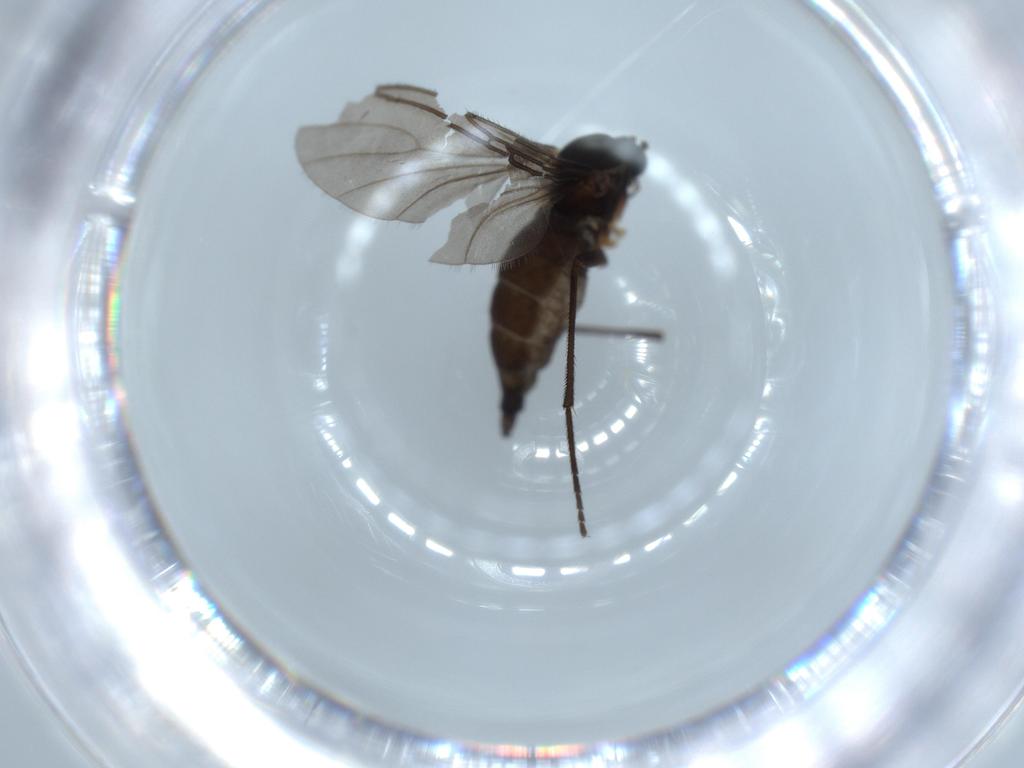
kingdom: Animalia
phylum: Arthropoda
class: Insecta
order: Diptera
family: Sciaridae
